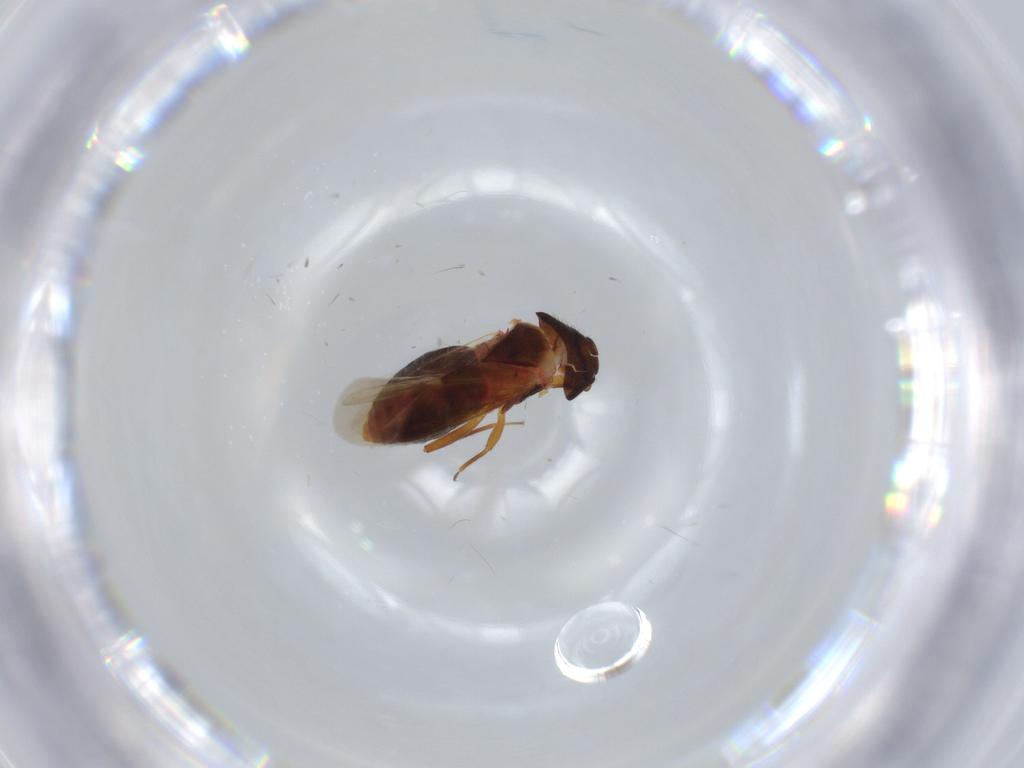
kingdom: Animalia
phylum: Arthropoda
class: Insecta
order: Hemiptera
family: Anthocoridae
